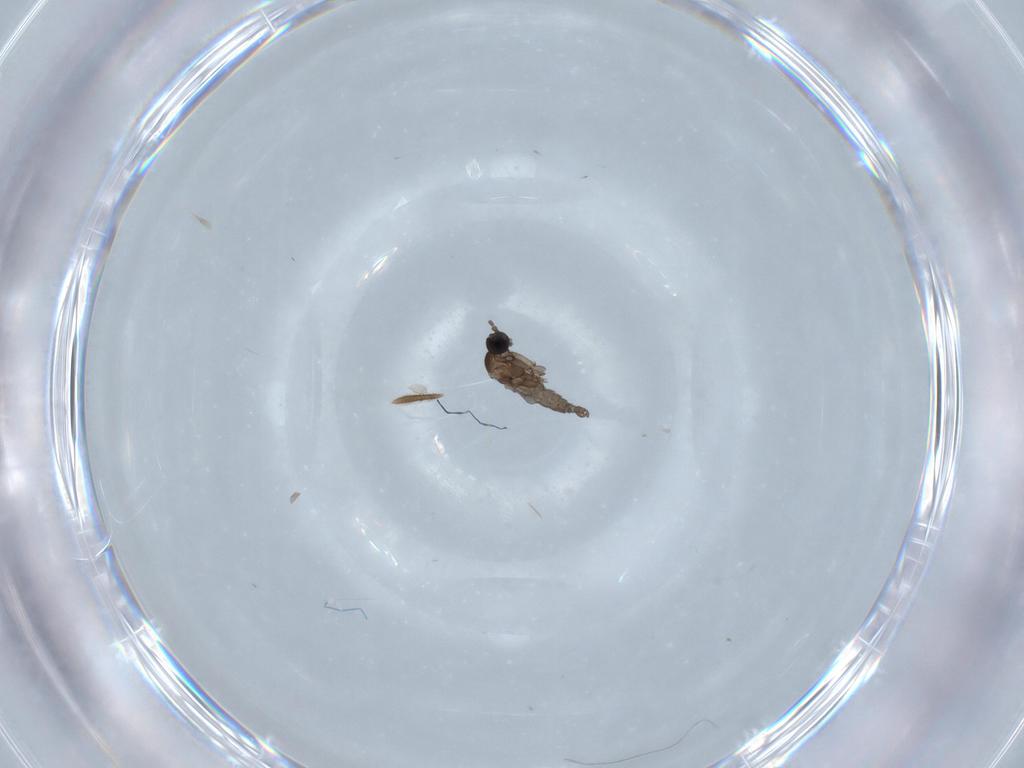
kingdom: Animalia
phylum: Arthropoda
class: Insecta
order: Diptera
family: Sciaridae
